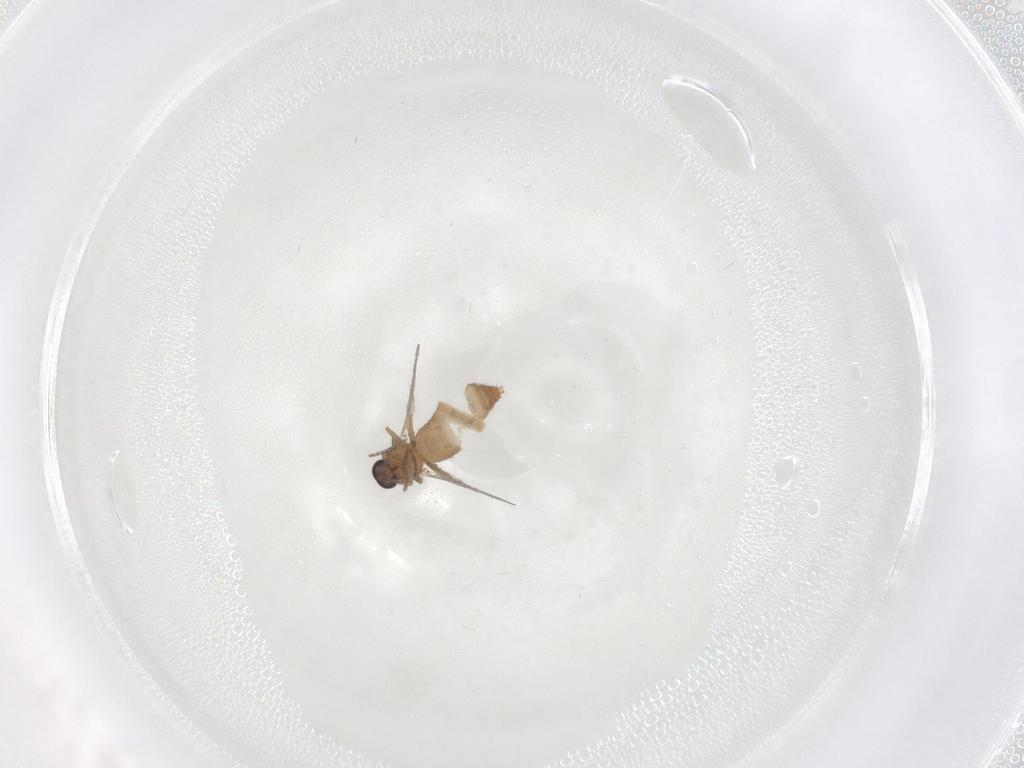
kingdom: Animalia
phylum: Arthropoda
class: Insecta
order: Diptera
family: Ceratopogonidae
